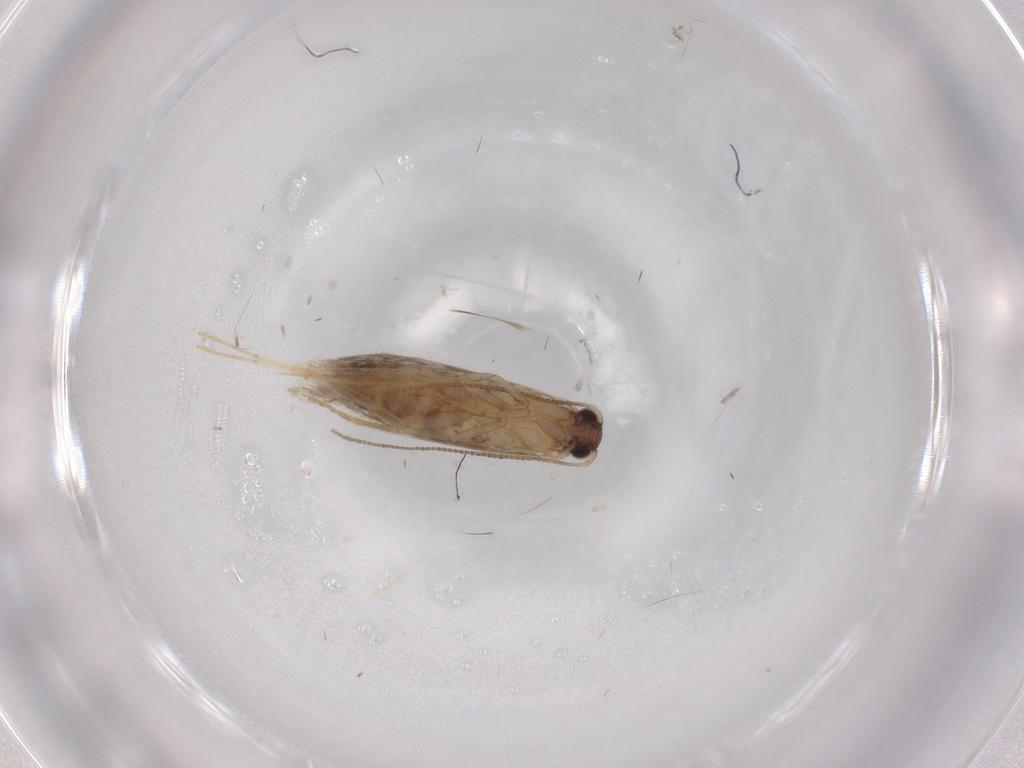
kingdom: Animalia
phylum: Arthropoda
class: Insecta
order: Lepidoptera
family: Tineidae
